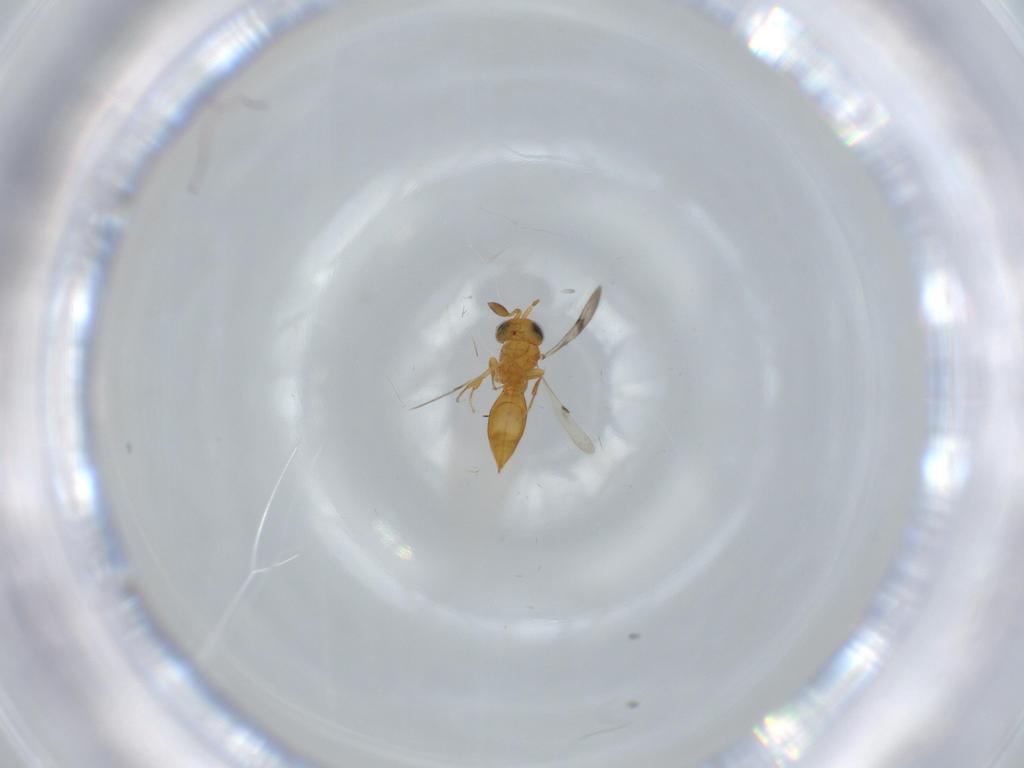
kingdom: Animalia
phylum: Arthropoda
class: Insecta
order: Hymenoptera
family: Scelionidae
